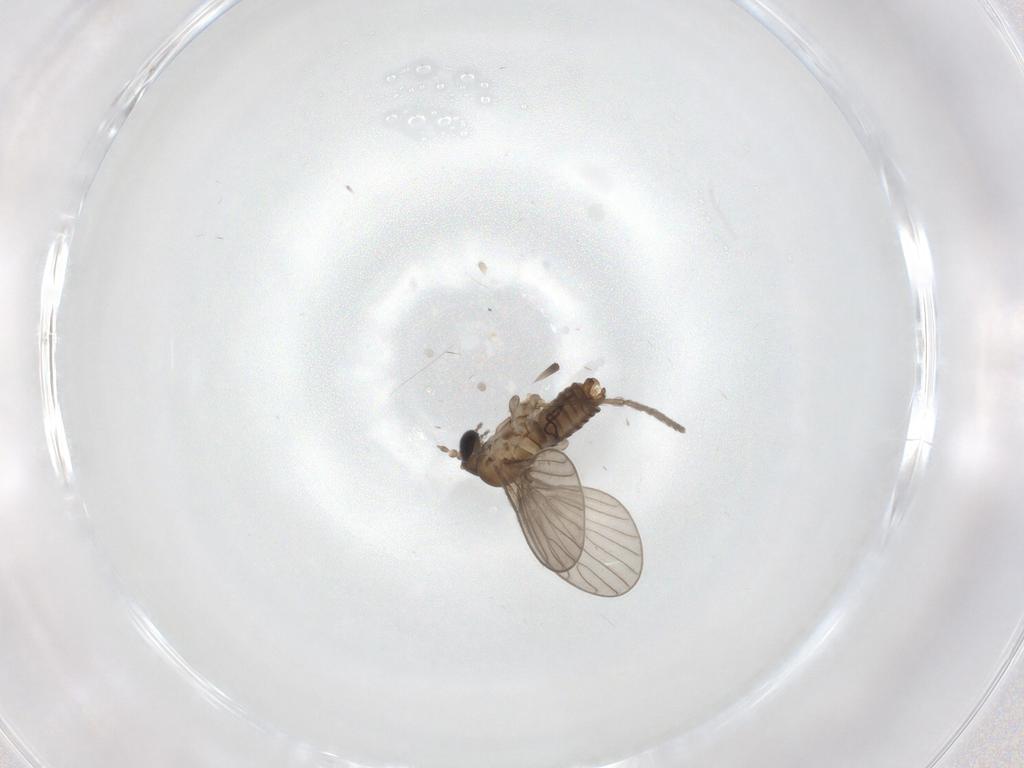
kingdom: Animalia
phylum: Arthropoda
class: Insecta
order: Diptera
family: Psychodidae
